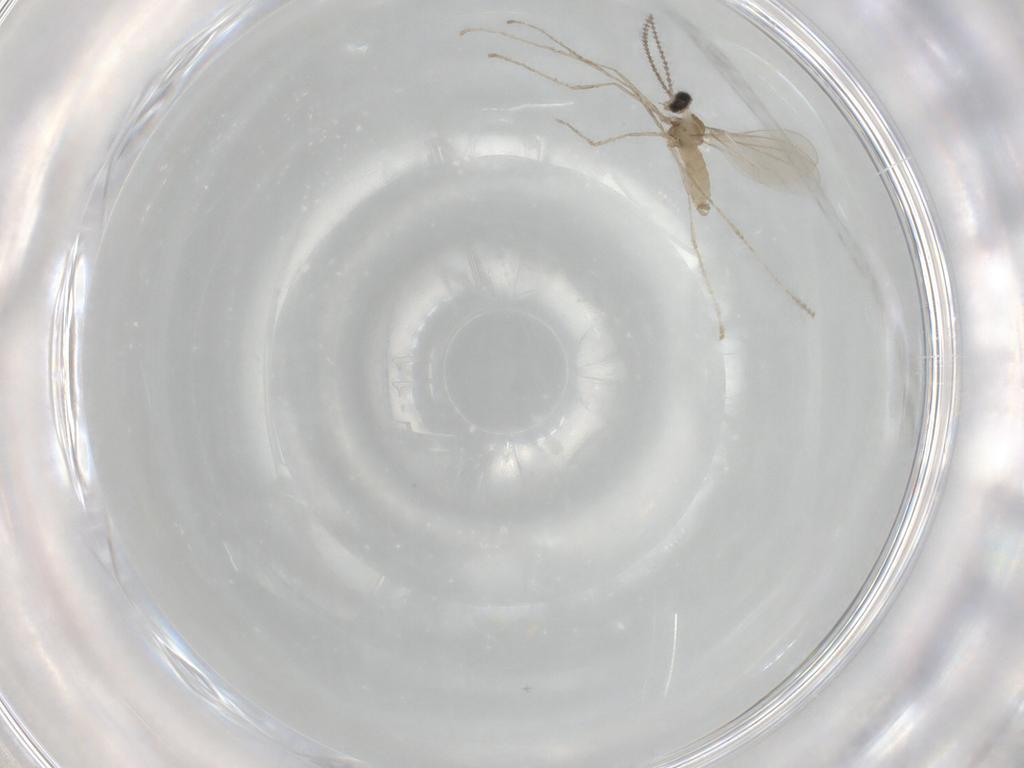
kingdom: Animalia
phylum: Arthropoda
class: Insecta
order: Diptera
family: Cecidomyiidae
